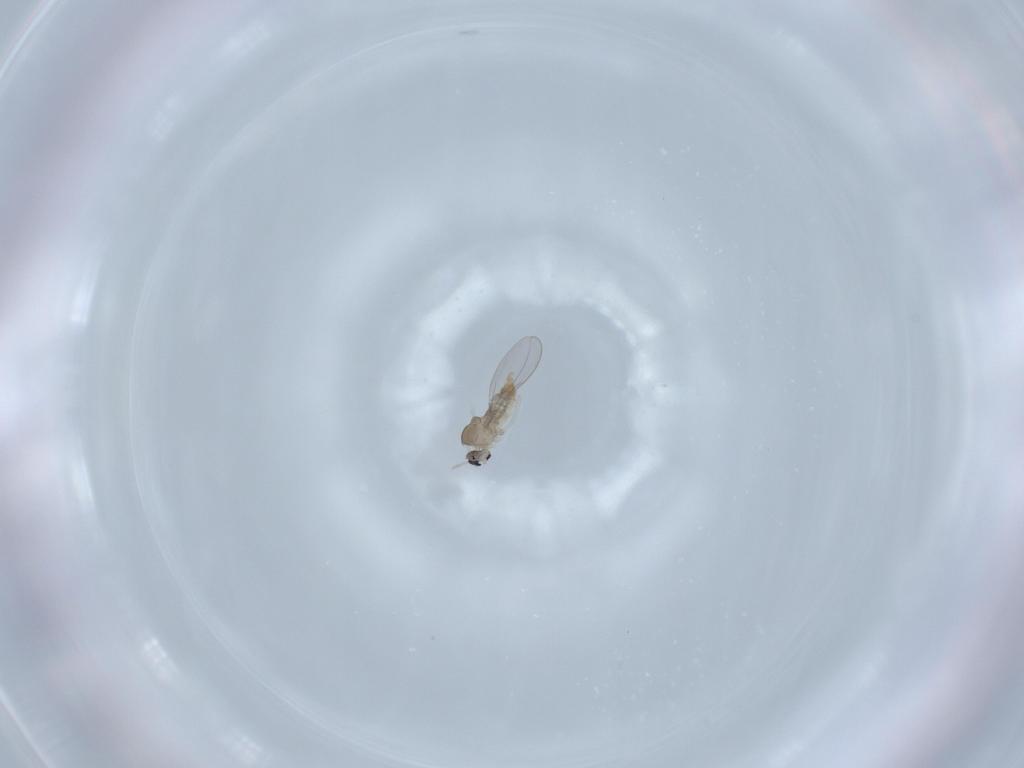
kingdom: Animalia
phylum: Arthropoda
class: Insecta
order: Diptera
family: Cecidomyiidae
